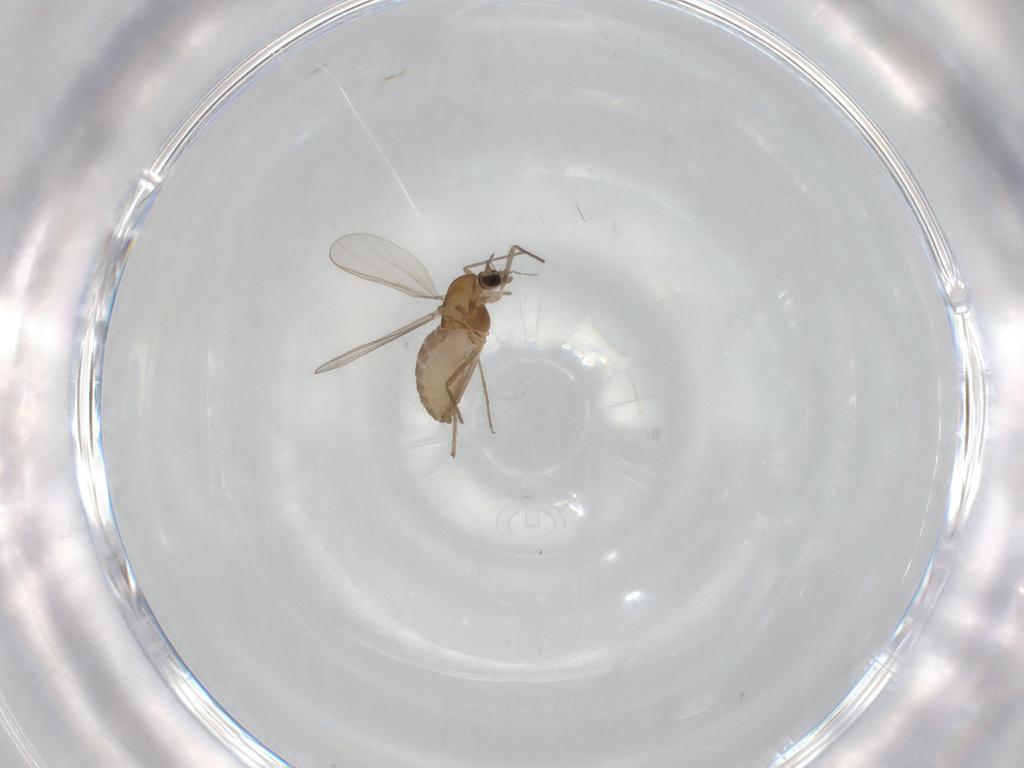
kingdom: Animalia
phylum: Arthropoda
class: Insecta
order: Diptera
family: Chironomidae
